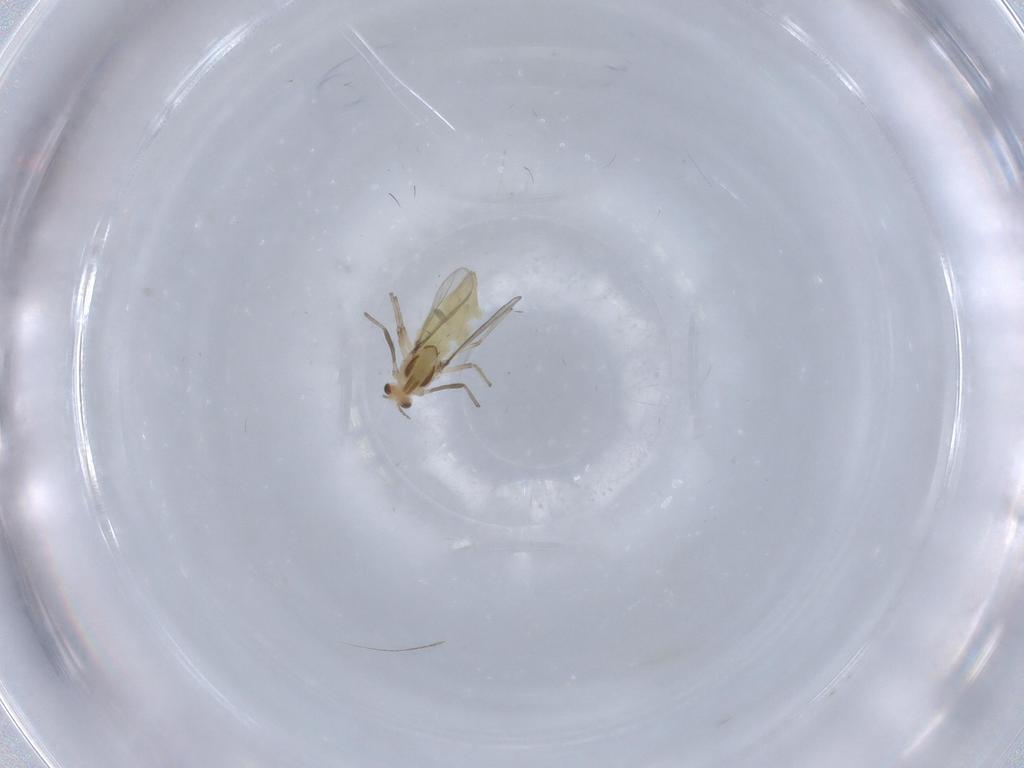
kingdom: Animalia
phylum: Arthropoda
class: Insecta
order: Diptera
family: Chironomidae
